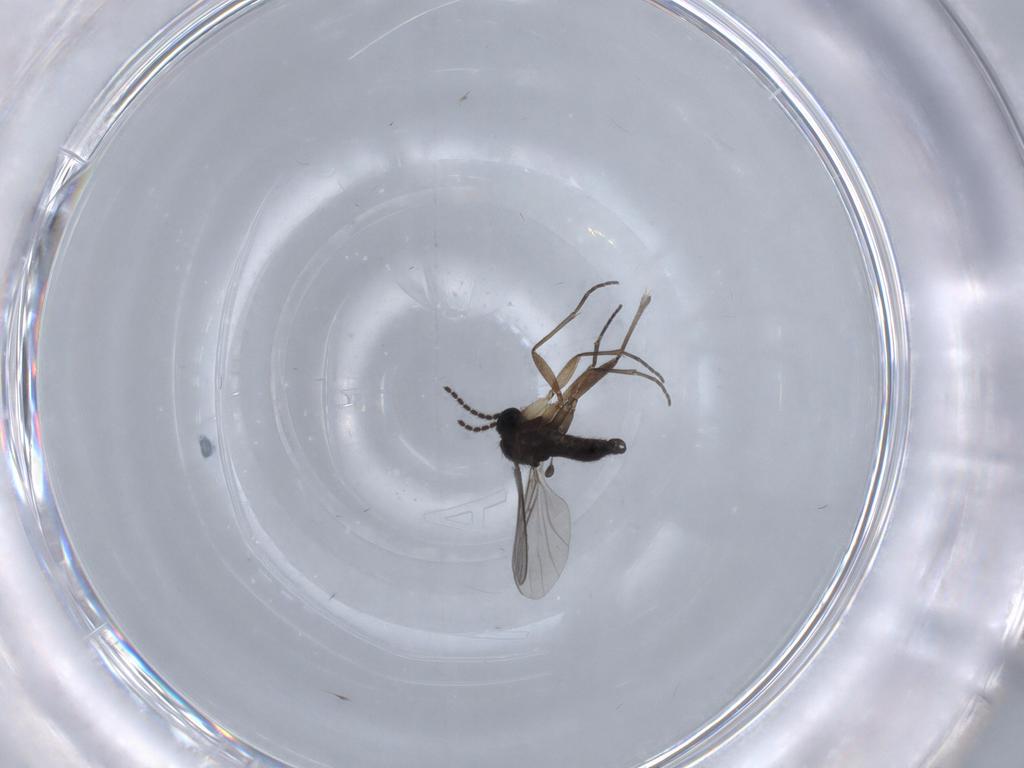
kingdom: Animalia
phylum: Arthropoda
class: Insecta
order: Diptera
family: Sciaridae
